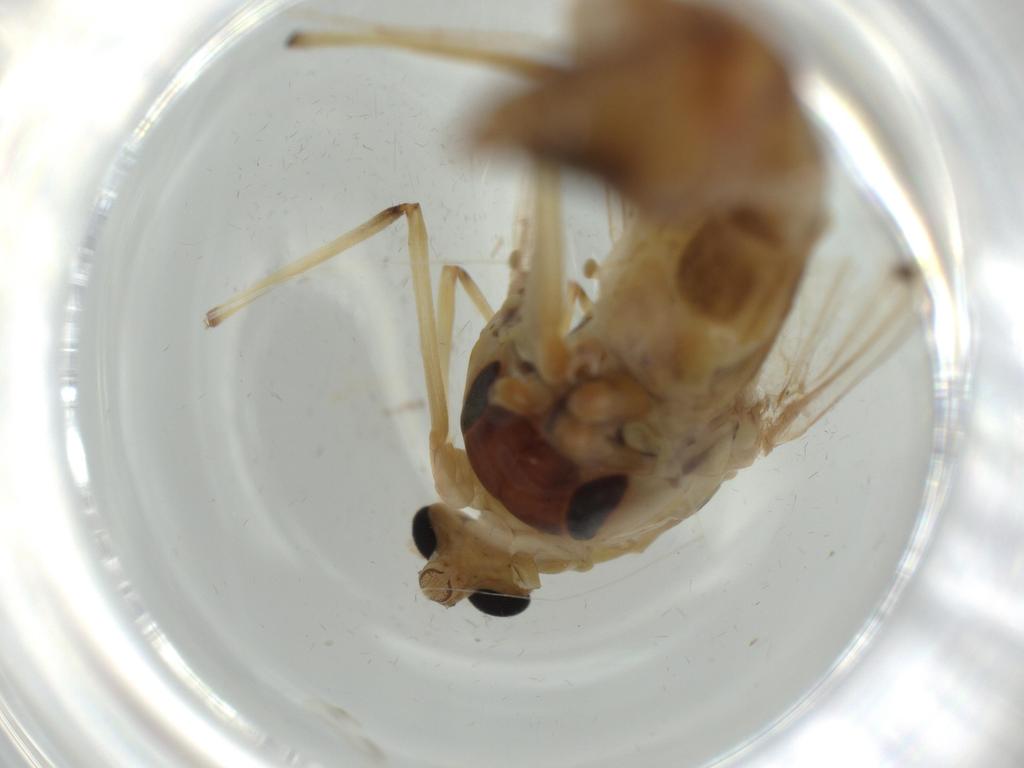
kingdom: Animalia
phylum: Arthropoda
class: Insecta
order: Diptera
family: Chironomidae
